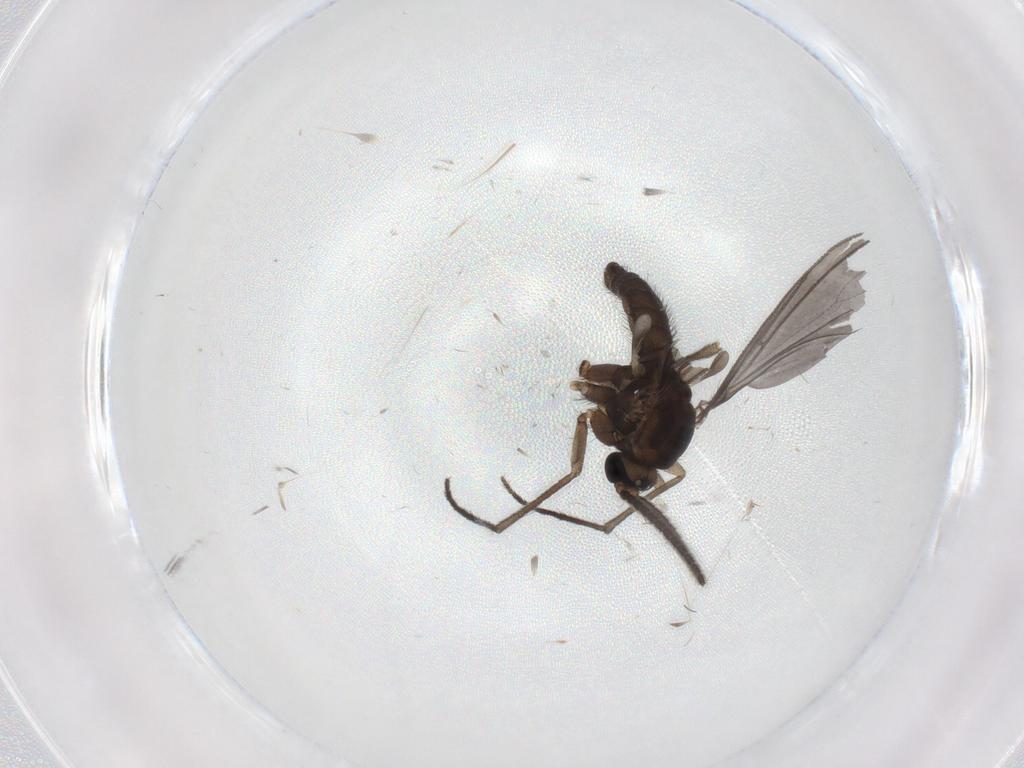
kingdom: Animalia
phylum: Arthropoda
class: Insecta
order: Diptera
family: Sciaridae
